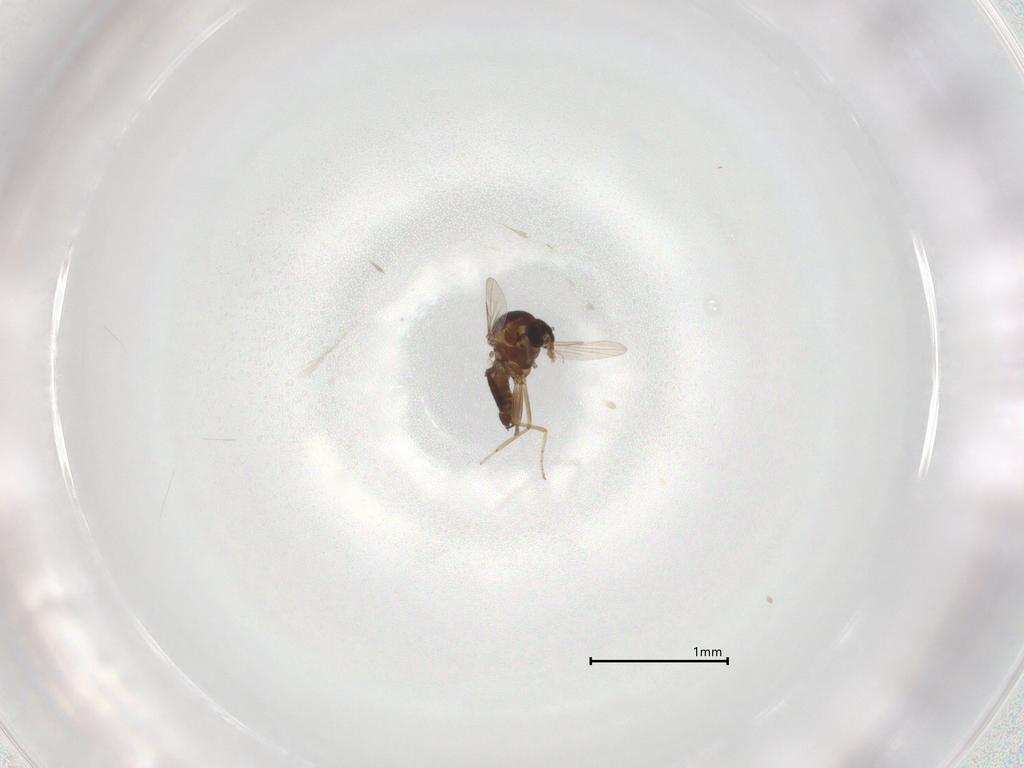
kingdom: Animalia
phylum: Arthropoda
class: Insecta
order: Diptera
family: Ceratopogonidae
